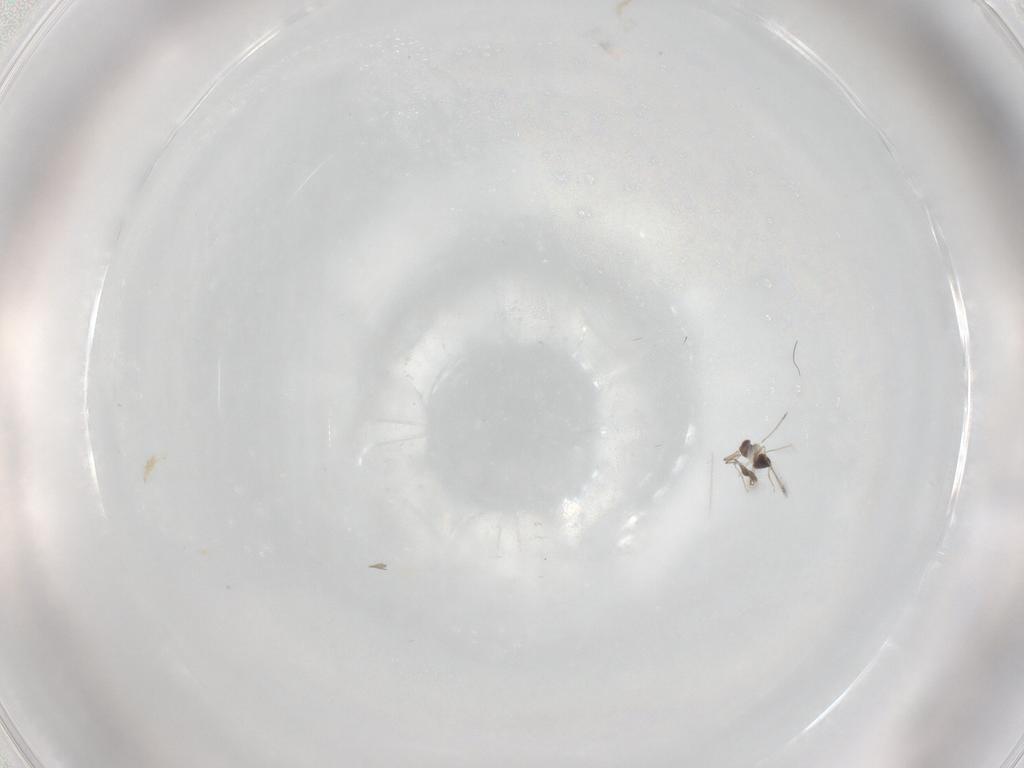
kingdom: Animalia
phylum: Arthropoda
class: Insecta
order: Hymenoptera
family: Mymaridae
